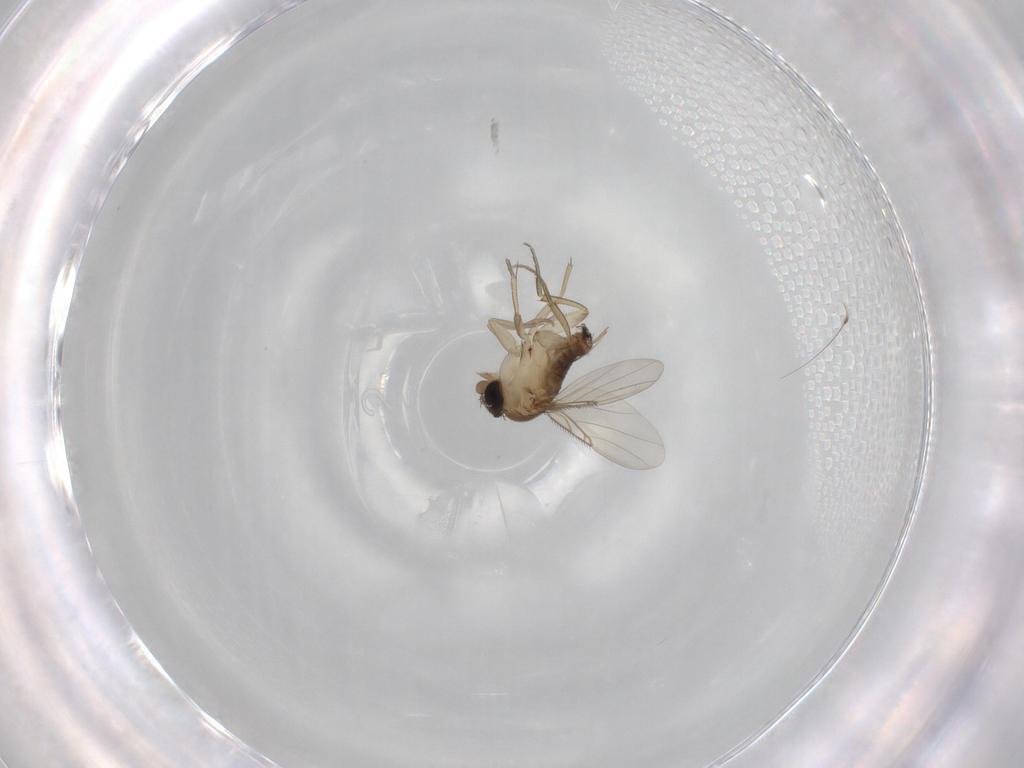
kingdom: Animalia
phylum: Arthropoda
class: Insecta
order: Diptera
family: Phoridae
